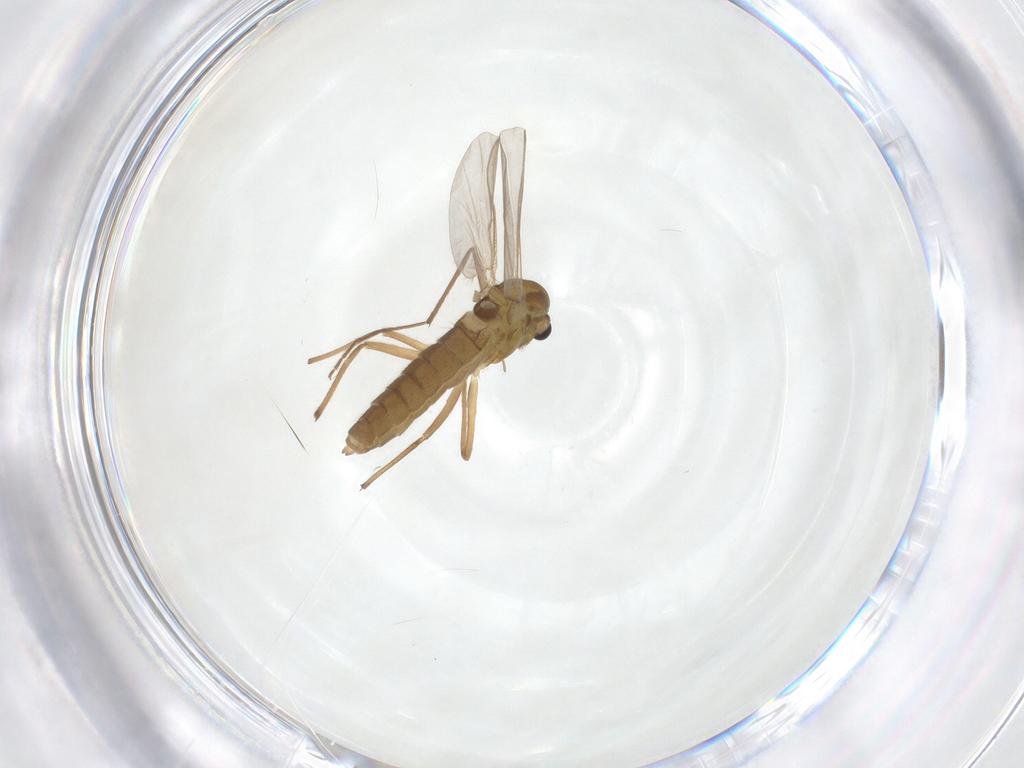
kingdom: Animalia
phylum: Arthropoda
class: Insecta
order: Diptera
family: Chironomidae
